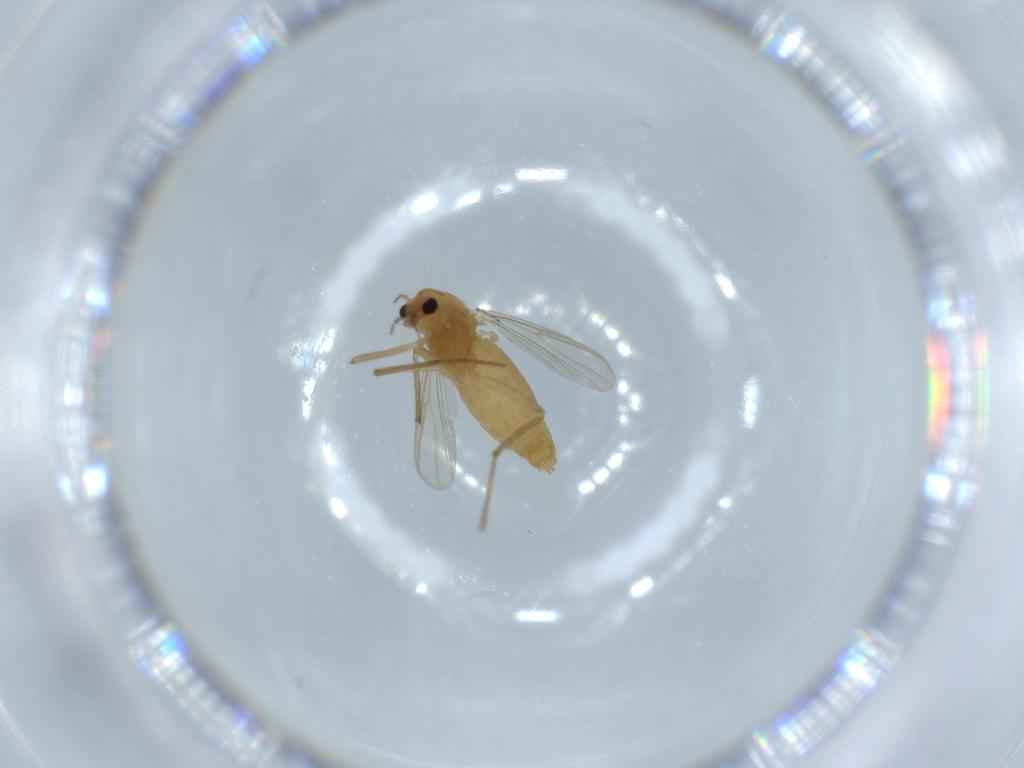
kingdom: Animalia
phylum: Arthropoda
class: Insecta
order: Diptera
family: Chironomidae
